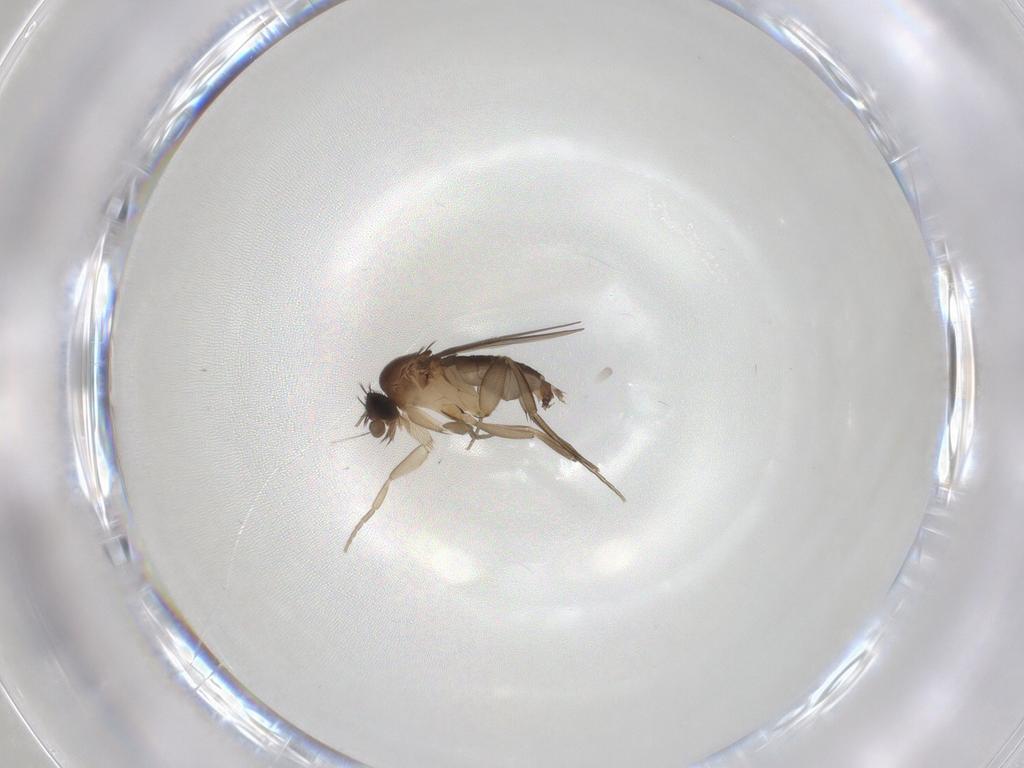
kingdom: Animalia
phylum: Arthropoda
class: Insecta
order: Diptera
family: Phoridae
